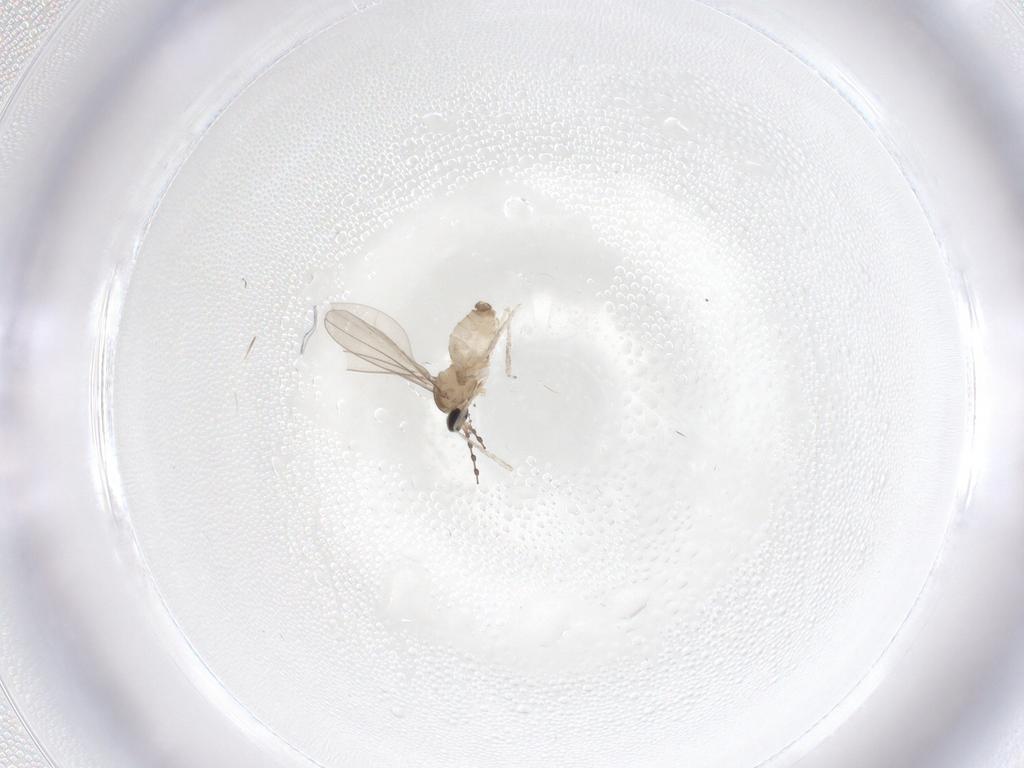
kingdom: Animalia
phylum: Arthropoda
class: Insecta
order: Diptera
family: Cecidomyiidae
